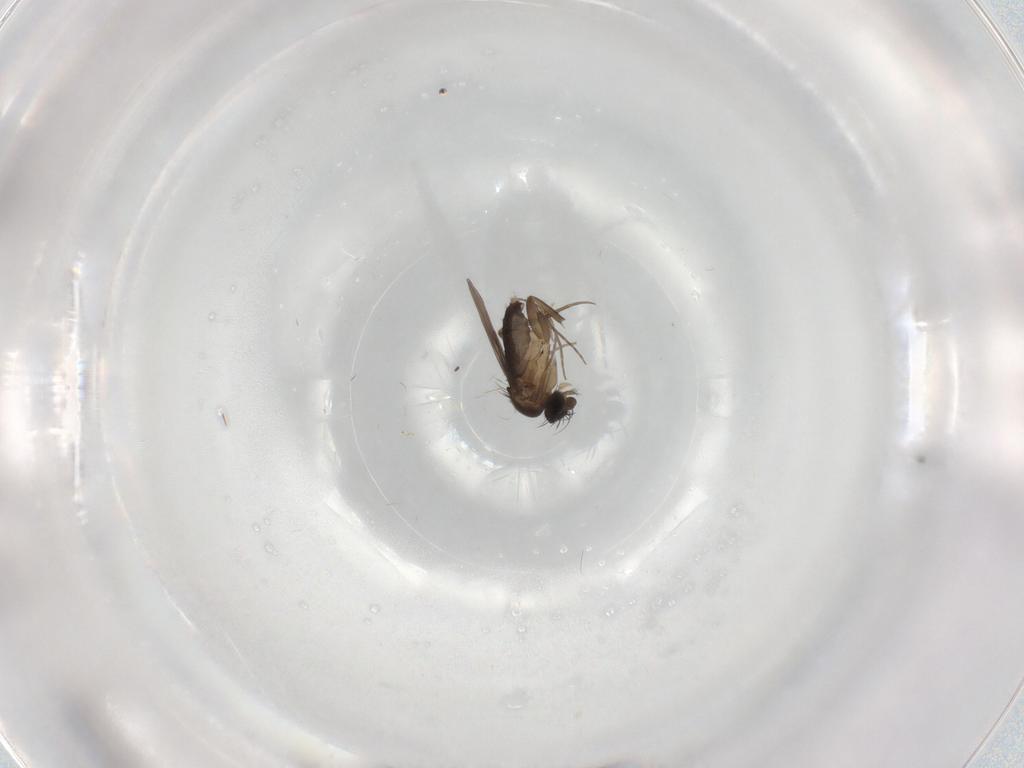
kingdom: Animalia
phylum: Arthropoda
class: Insecta
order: Diptera
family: Phoridae
